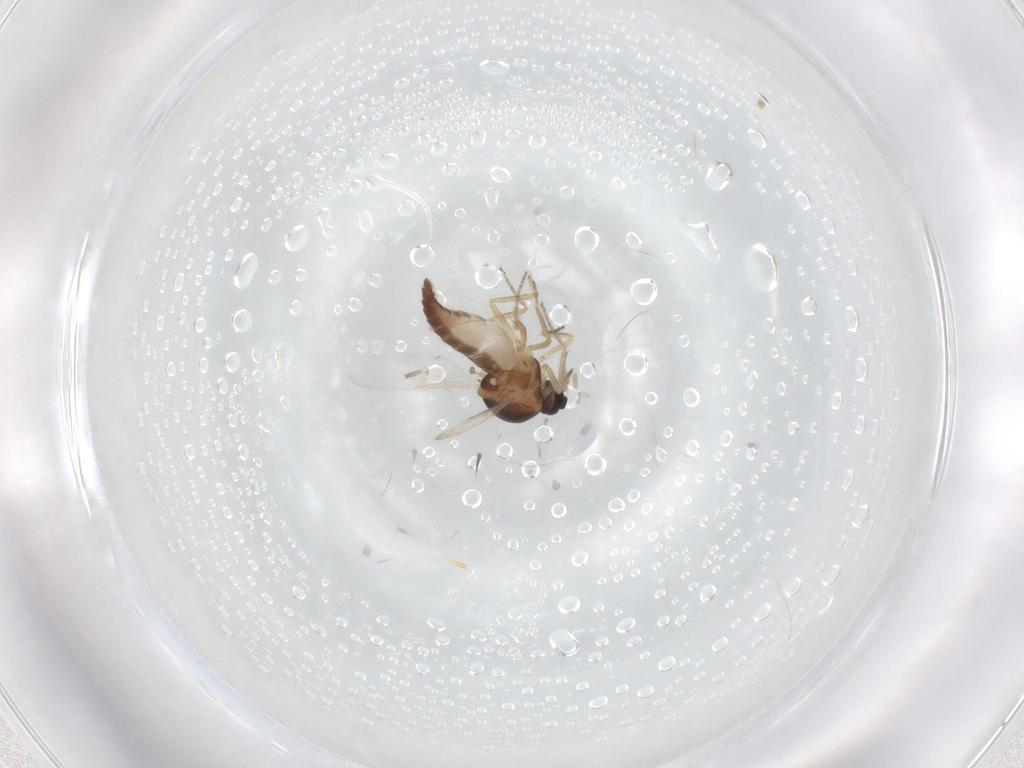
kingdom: Animalia
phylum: Arthropoda
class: Insecta
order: Diptera
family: Ceratopogonidae
